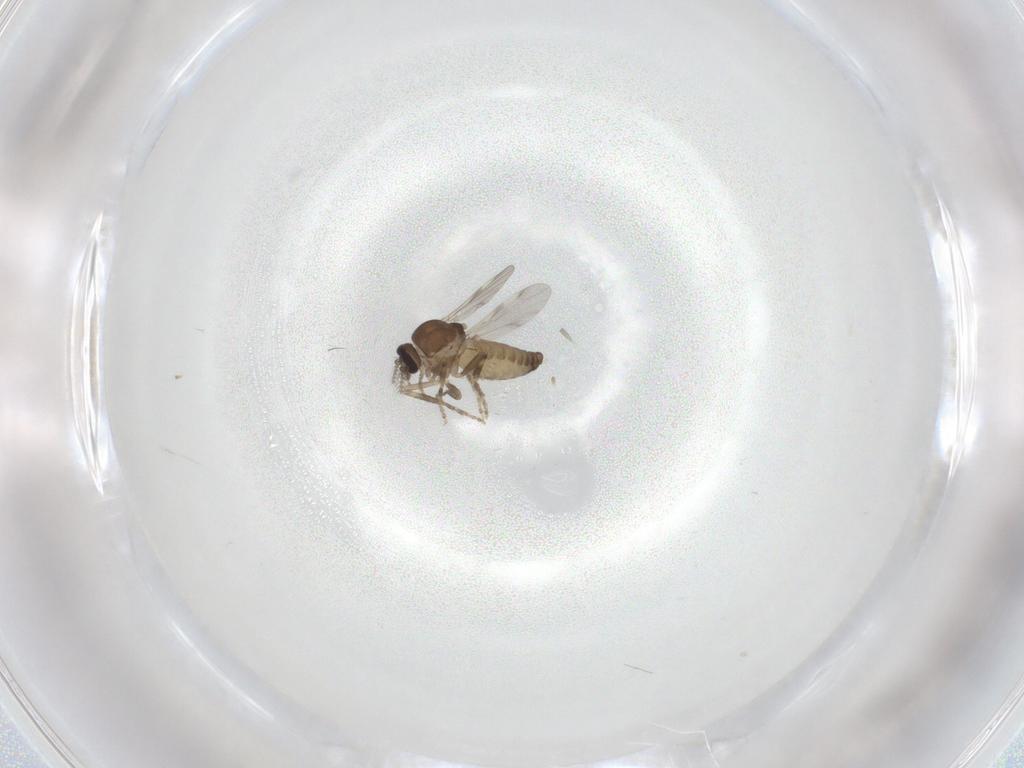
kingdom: Animalia
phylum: Arthropoda
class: Insecta
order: Diptera
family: Ceratopogonidae
